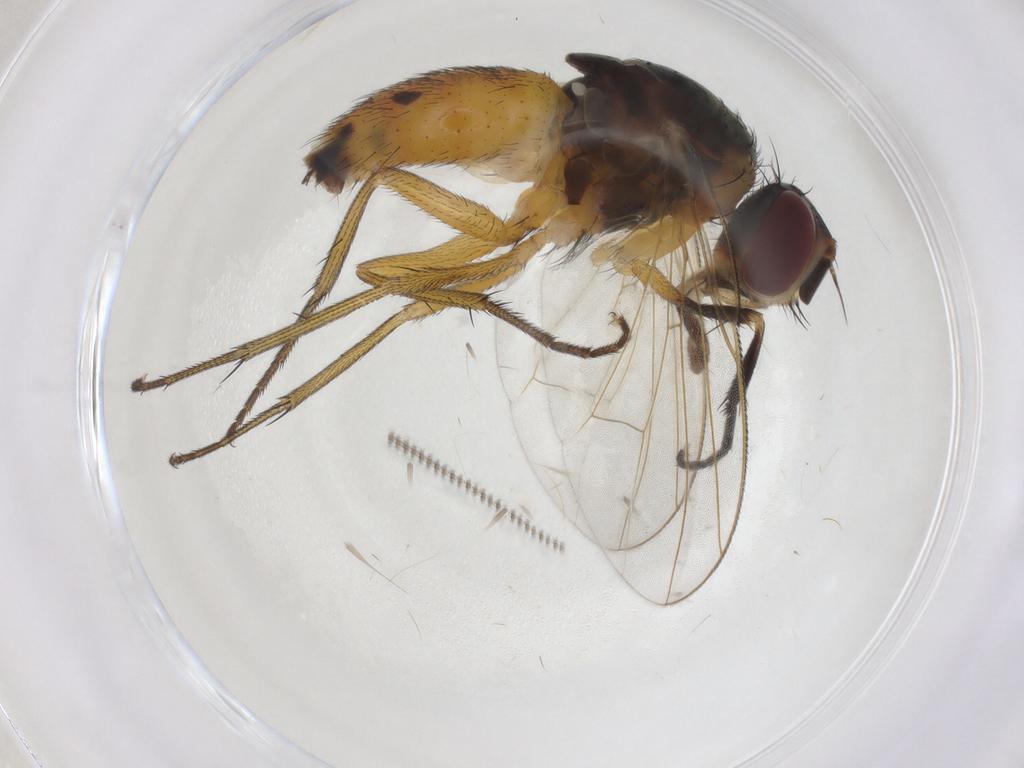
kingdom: Animalia
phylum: Arthropoda
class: Insecta
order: Diptera
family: Muscidae
